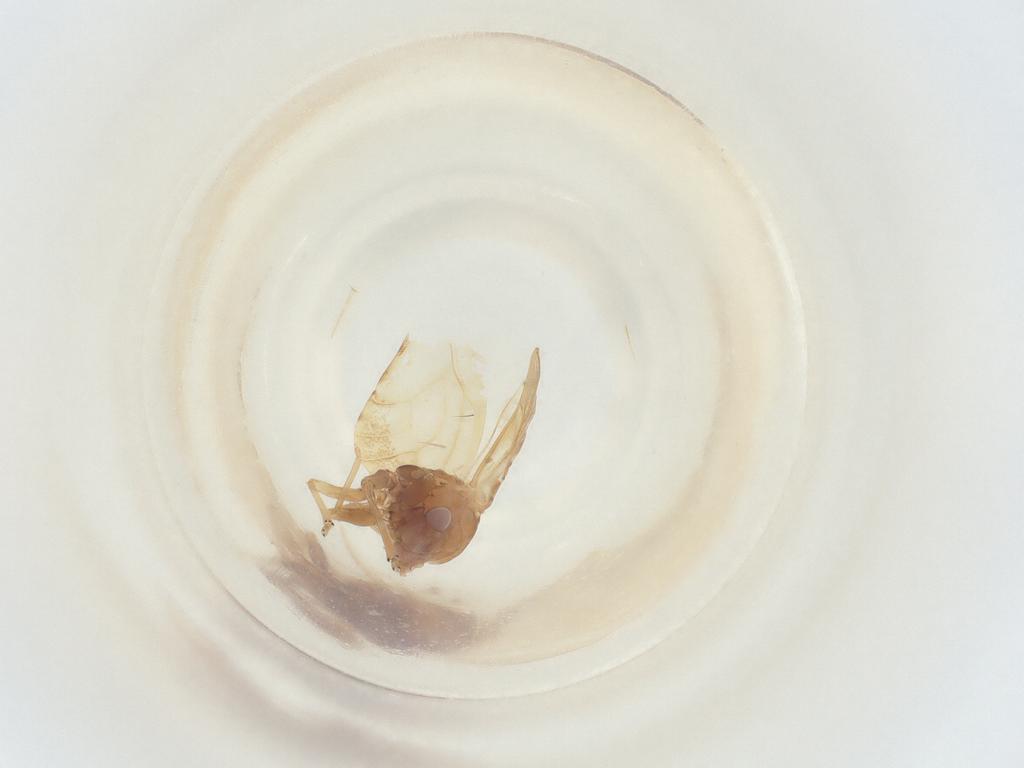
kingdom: Animalia
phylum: Arthropoda
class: Insecta
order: Hemiptera
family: Psyllidae
